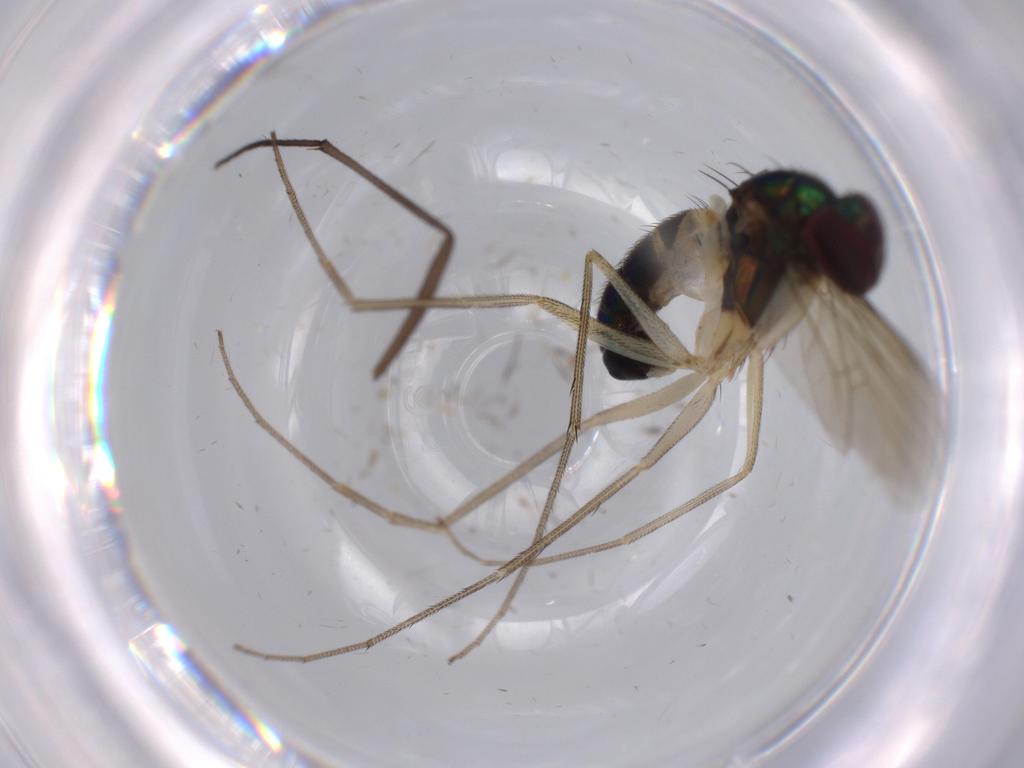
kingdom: Animalia
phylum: Arthropoda
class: Insecta
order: Diptera
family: Dolichopodidae
